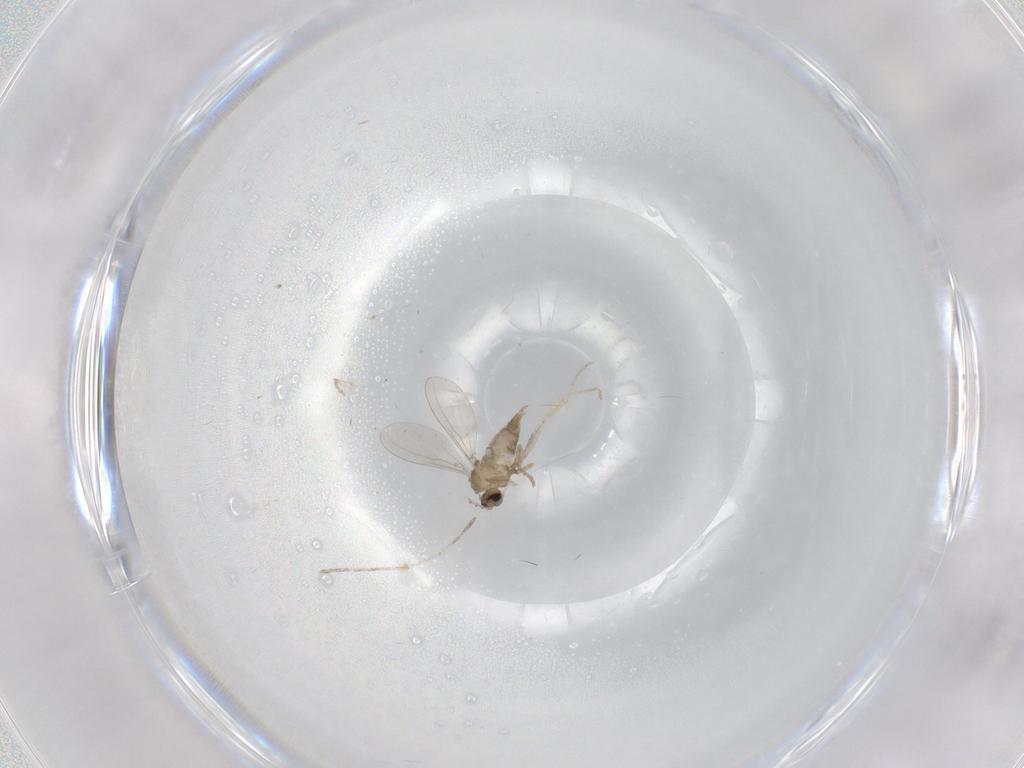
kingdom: Animalia
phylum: Arthropoda
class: Insecta
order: Diptera
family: Cecidomyiidae
